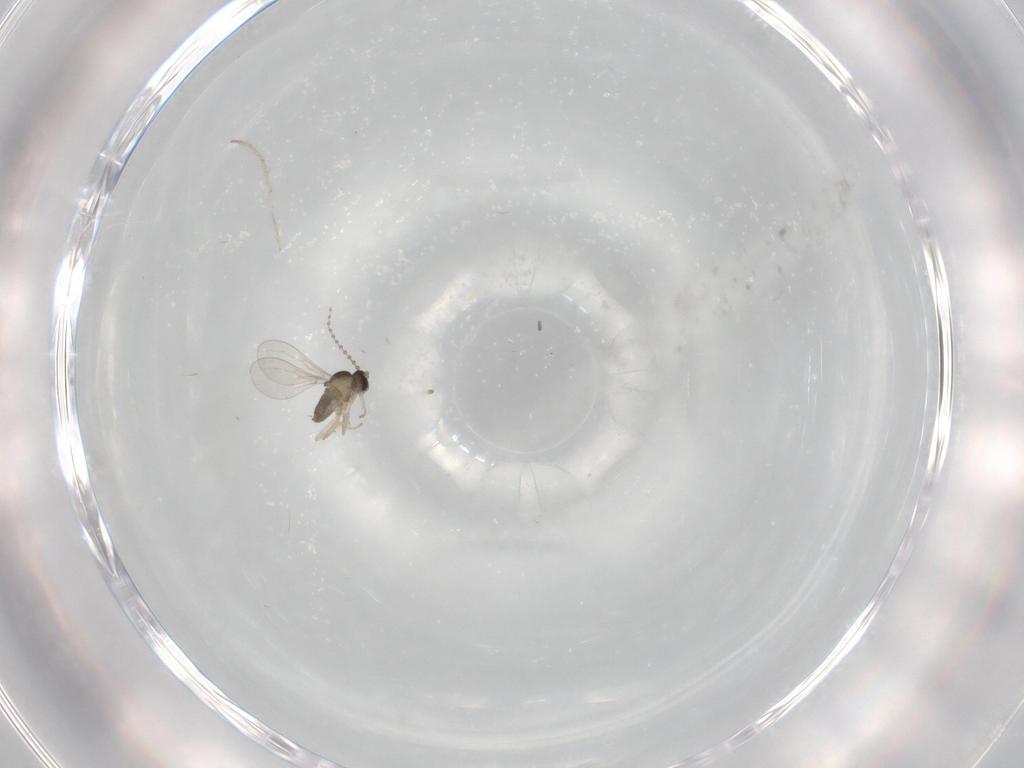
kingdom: Animalia
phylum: Arthropoda
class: Insecta
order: Diptera
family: Cecidomyiidae
